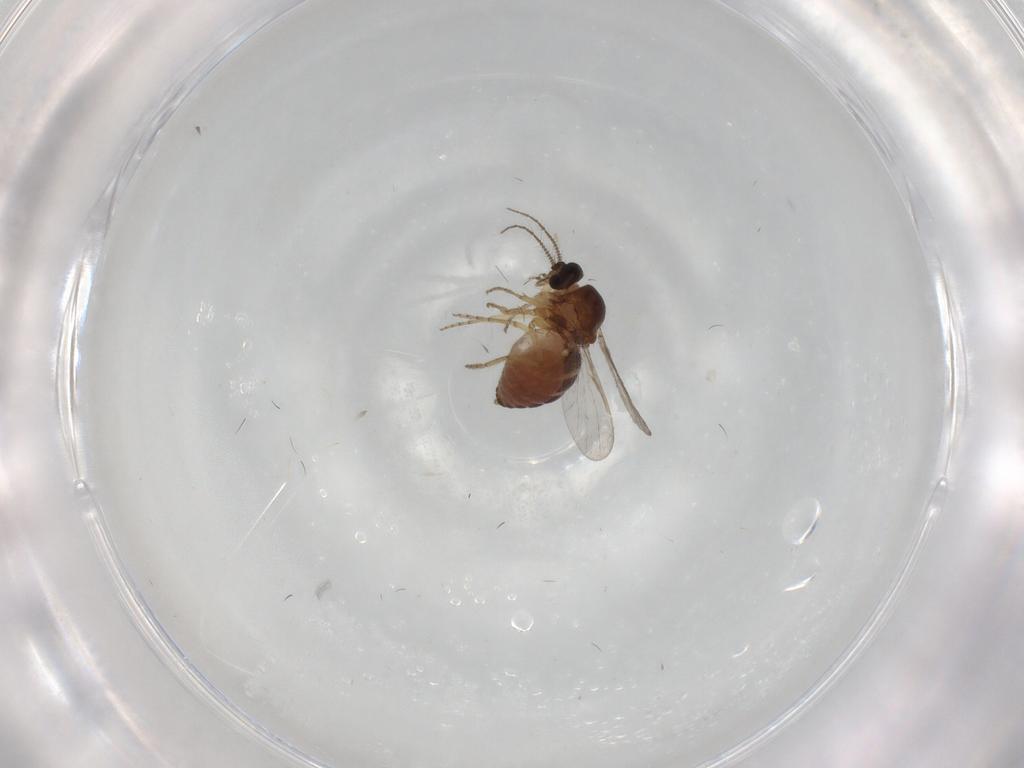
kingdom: Animalia
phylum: Arthropoda
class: Insecta
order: Diptera
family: Ceratopogonidae
